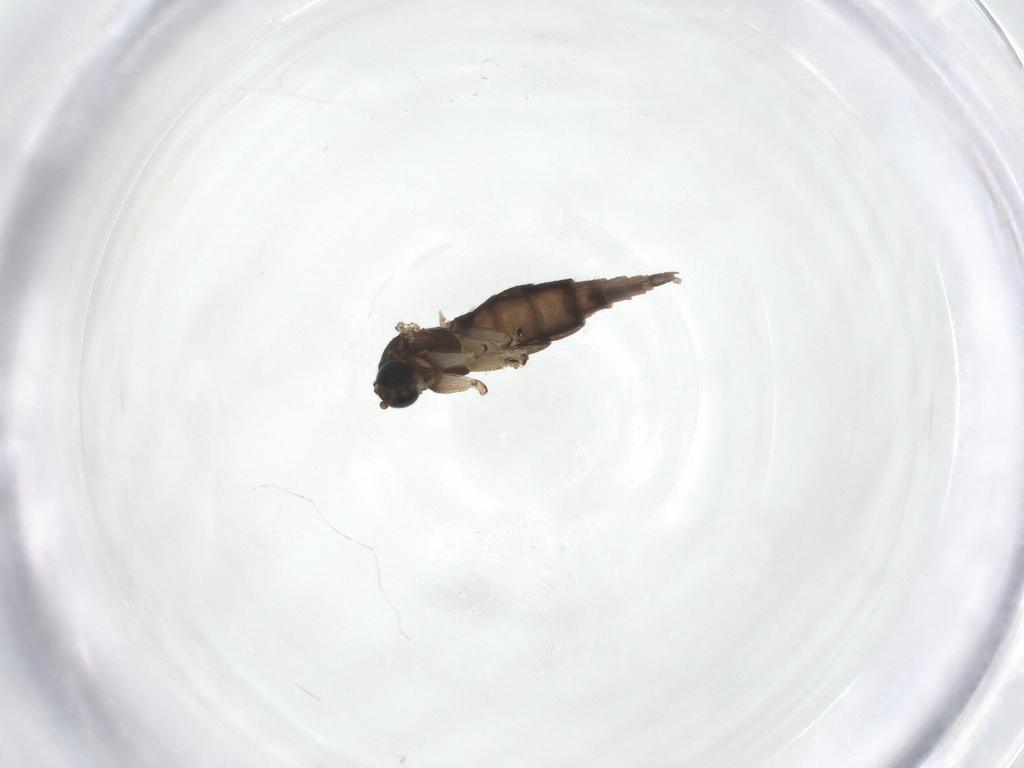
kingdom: Animalia
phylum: Arthropoda
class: Insecta
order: Diptera
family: Sciaridae
